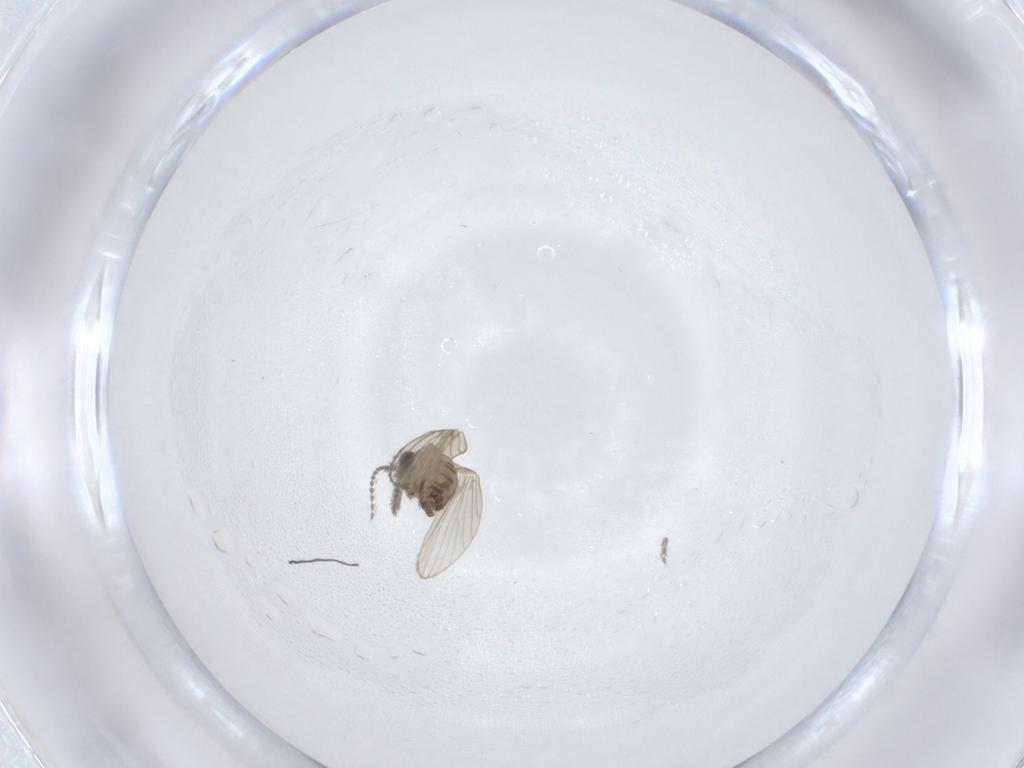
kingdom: Animalia
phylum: Arthropoda
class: Insecta
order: Diptera
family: Psychodidae
